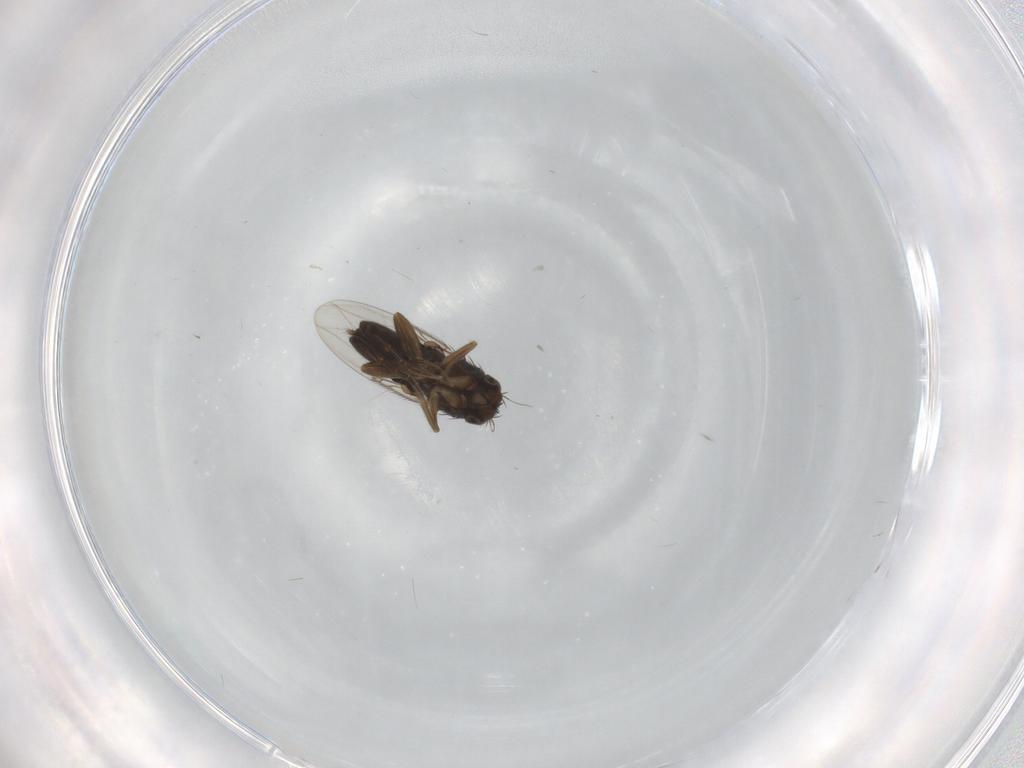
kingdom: Animalia
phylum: Arthropoda
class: Insecta
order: Diptera
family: Phoridae
